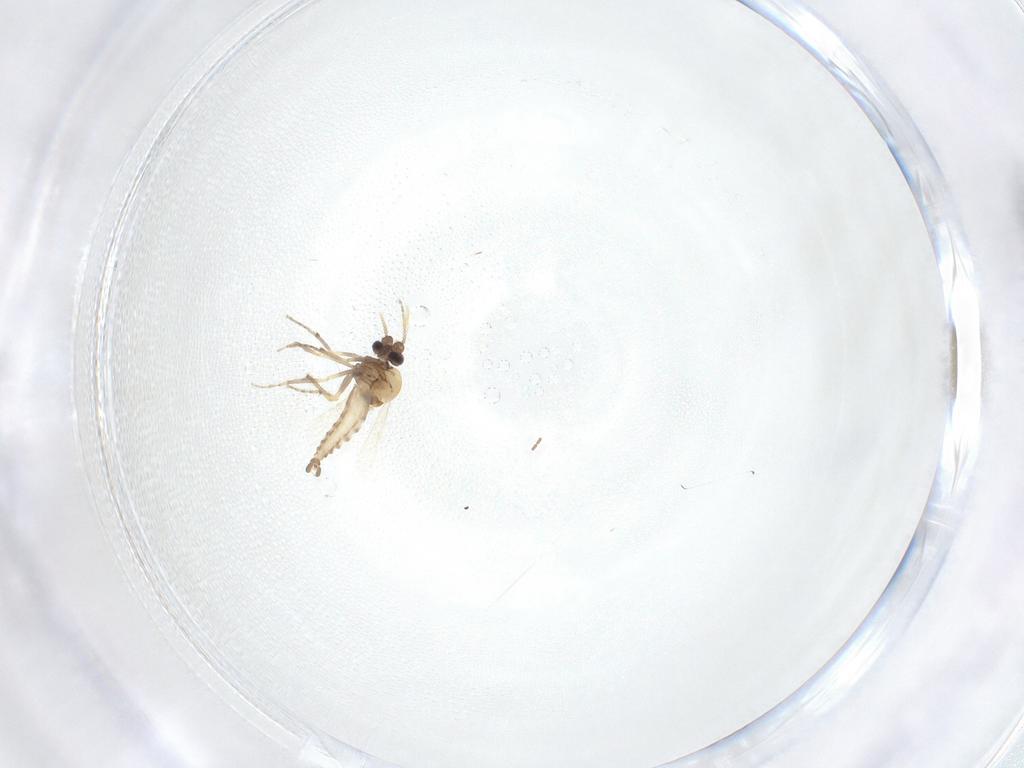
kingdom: Animalia
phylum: Arthropoda
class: Insecta
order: Diptera
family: Ceratopogonidae
